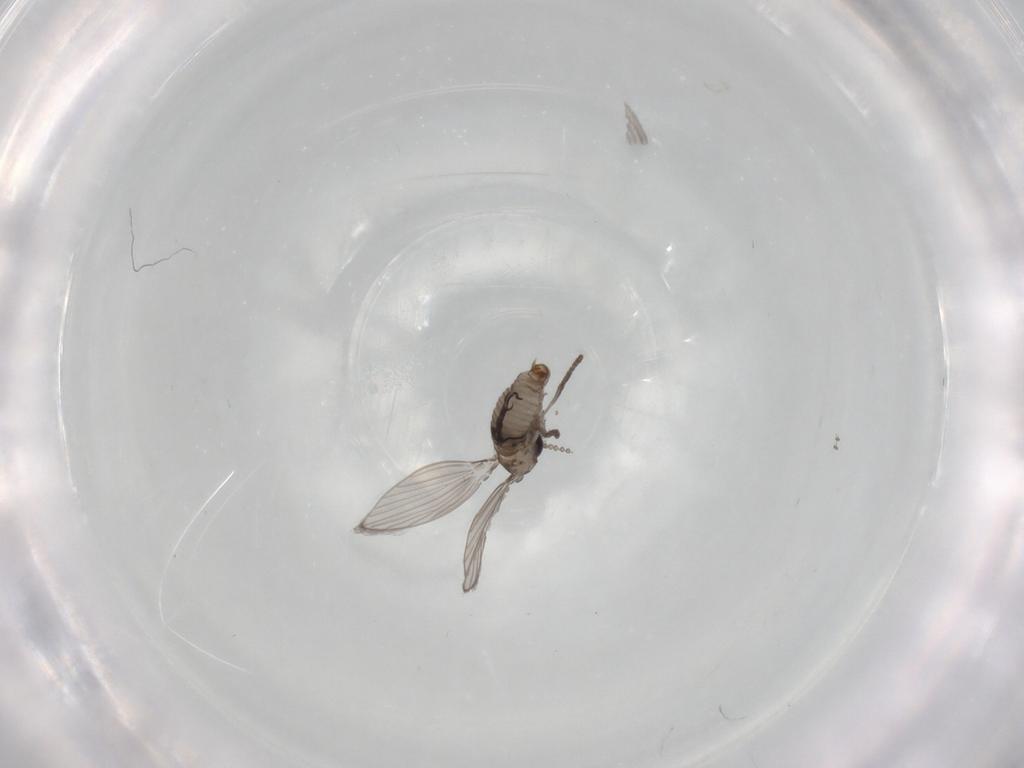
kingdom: Animalia
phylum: Arthropoda
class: Insecta
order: Diptera
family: Psychodidae
